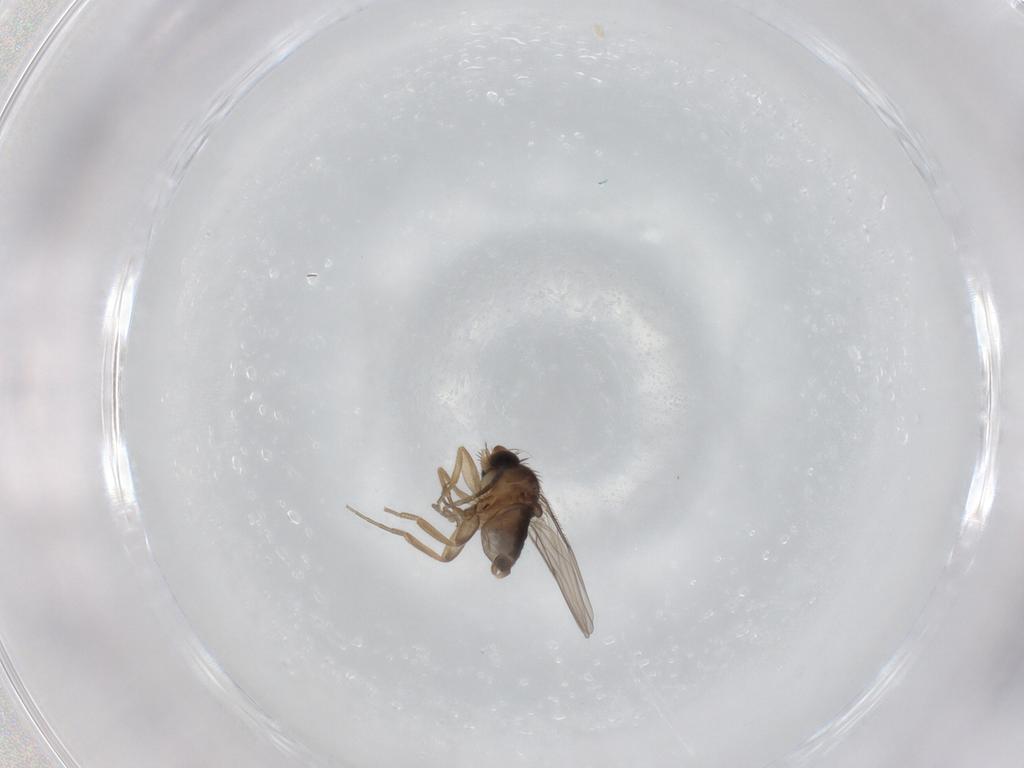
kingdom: Animalia
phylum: Arthropoda
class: Insecta
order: Diptera
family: Phoridae
